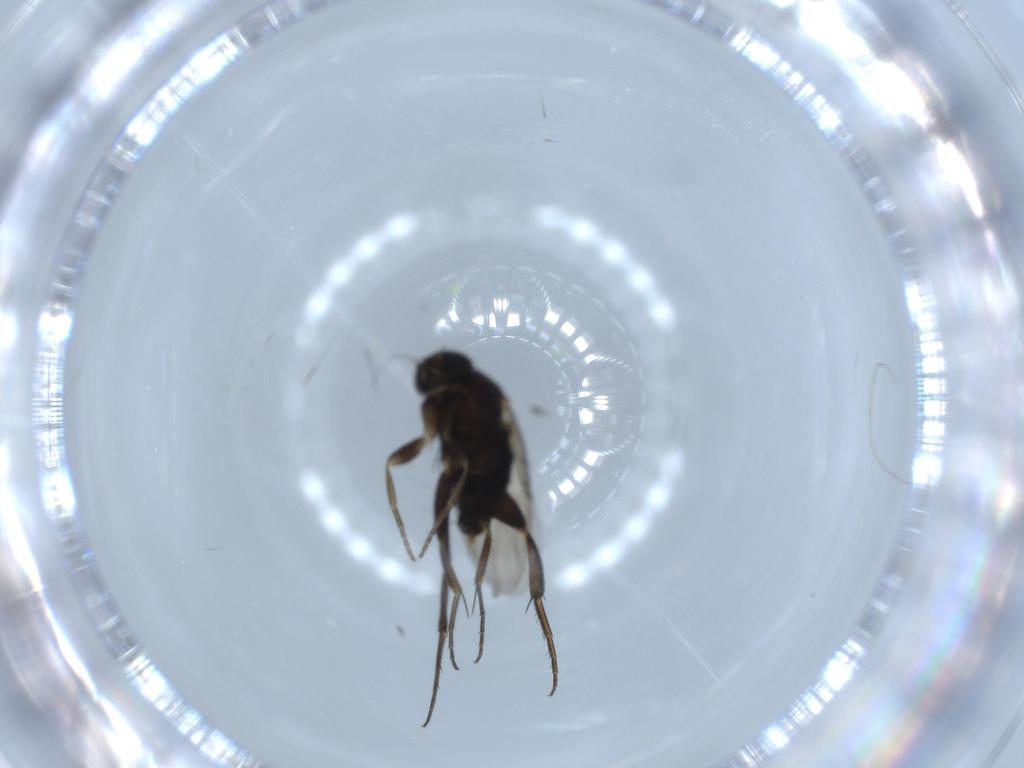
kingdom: Animalia
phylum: Arthropoda
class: Insecta
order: Diptera
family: Phoridae
